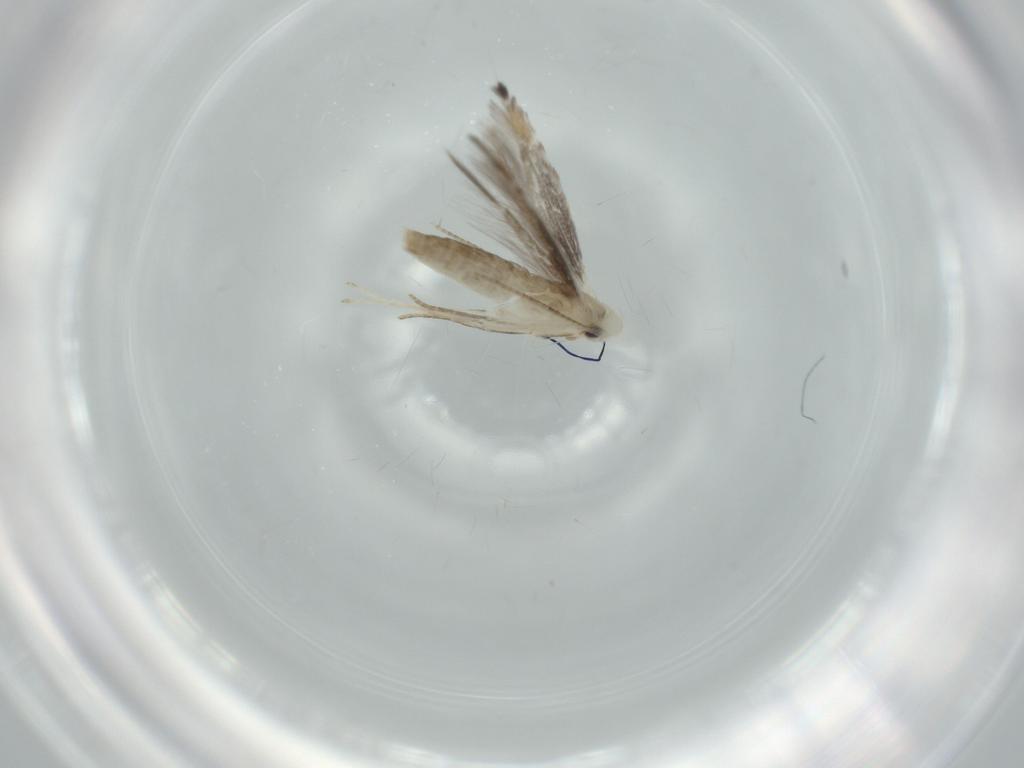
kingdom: Animalia
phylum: Arthropoda
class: Insecta
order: Lepidoptera
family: Gracillariidae
